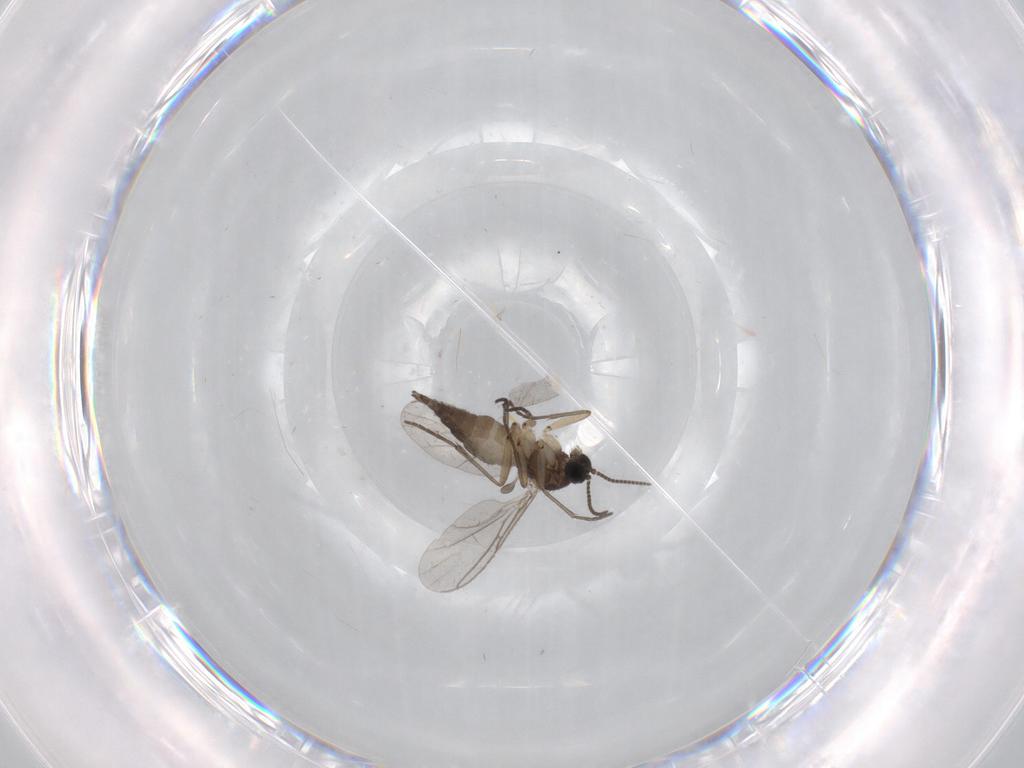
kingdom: Animalia
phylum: Arthropoda
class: Insecta
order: Diptera
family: Sciaridae
